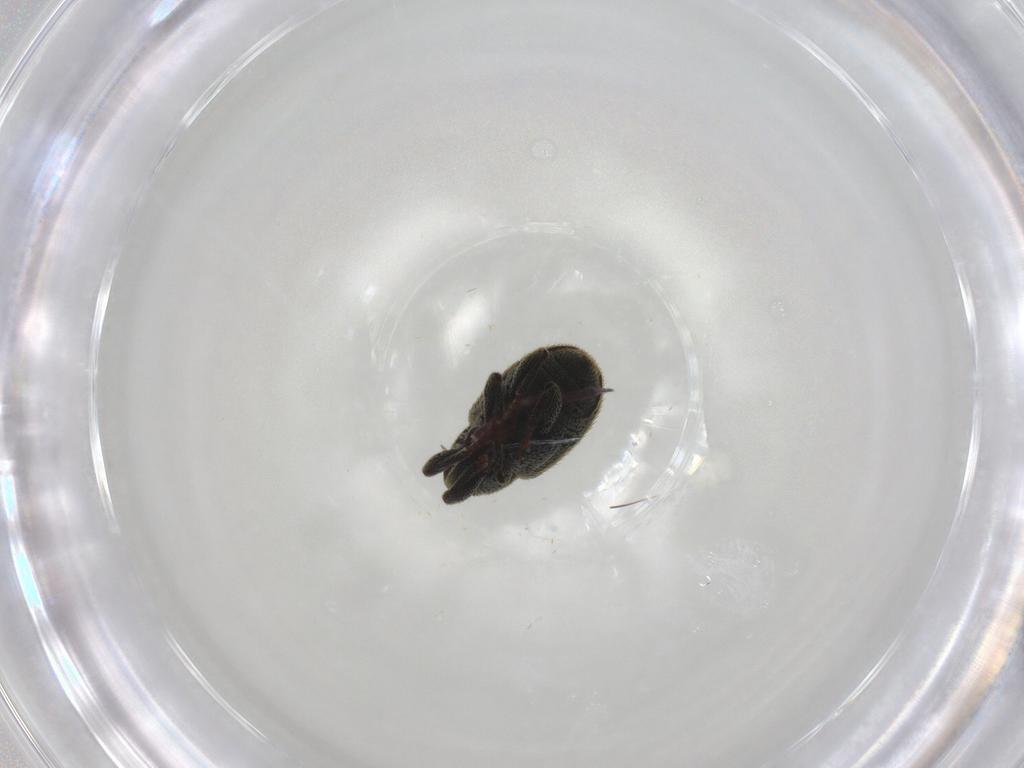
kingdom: Animalia
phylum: Arthropoda
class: Insecta
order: Coleoptera
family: Curculionidae
